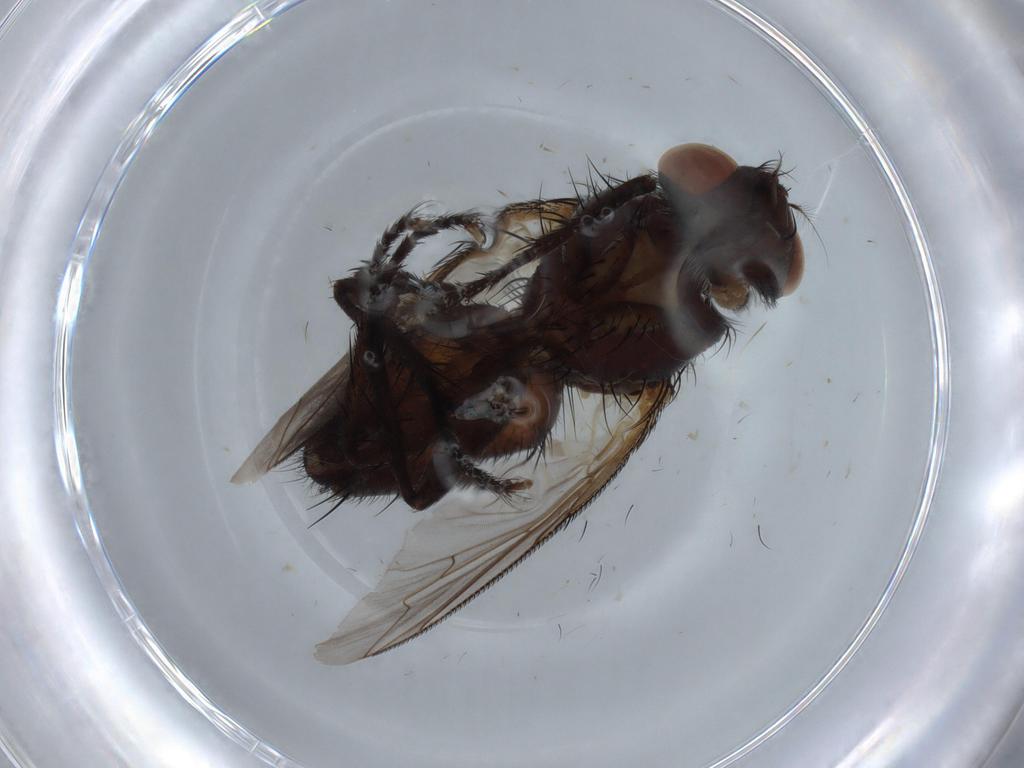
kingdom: Animalia
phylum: Arthropoda
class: Insecta
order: Diptera
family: Sarcophagidae
